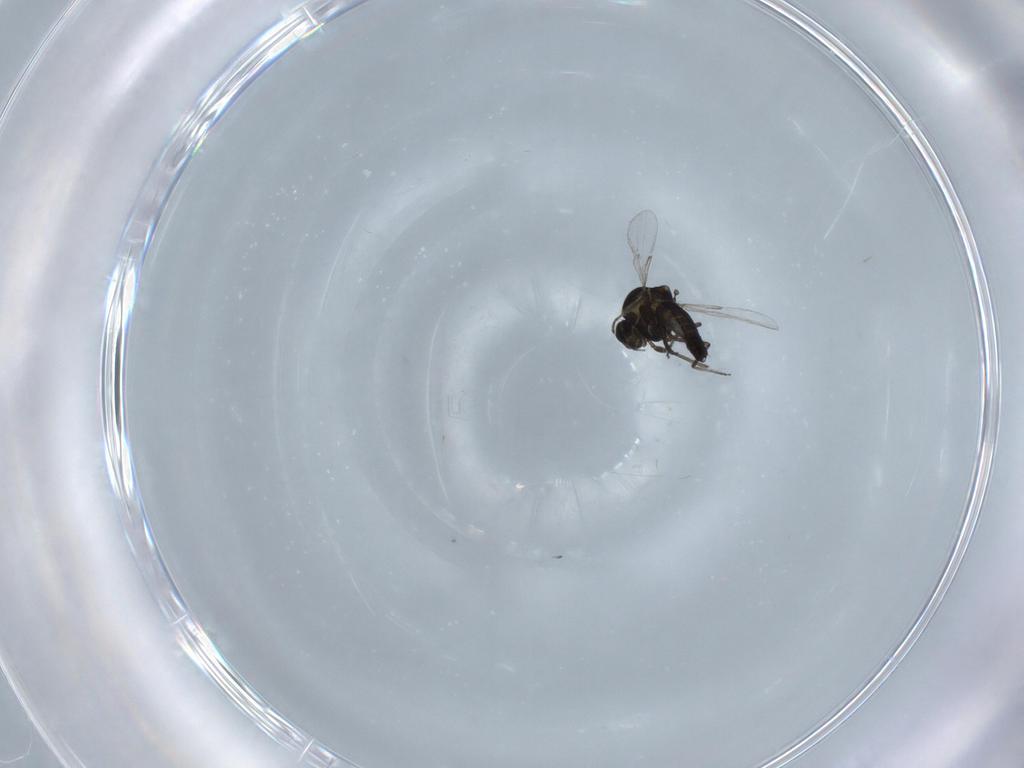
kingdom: Animalia
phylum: Arthropoda
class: Insecta
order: Diptera
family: Ceratopogonidae
